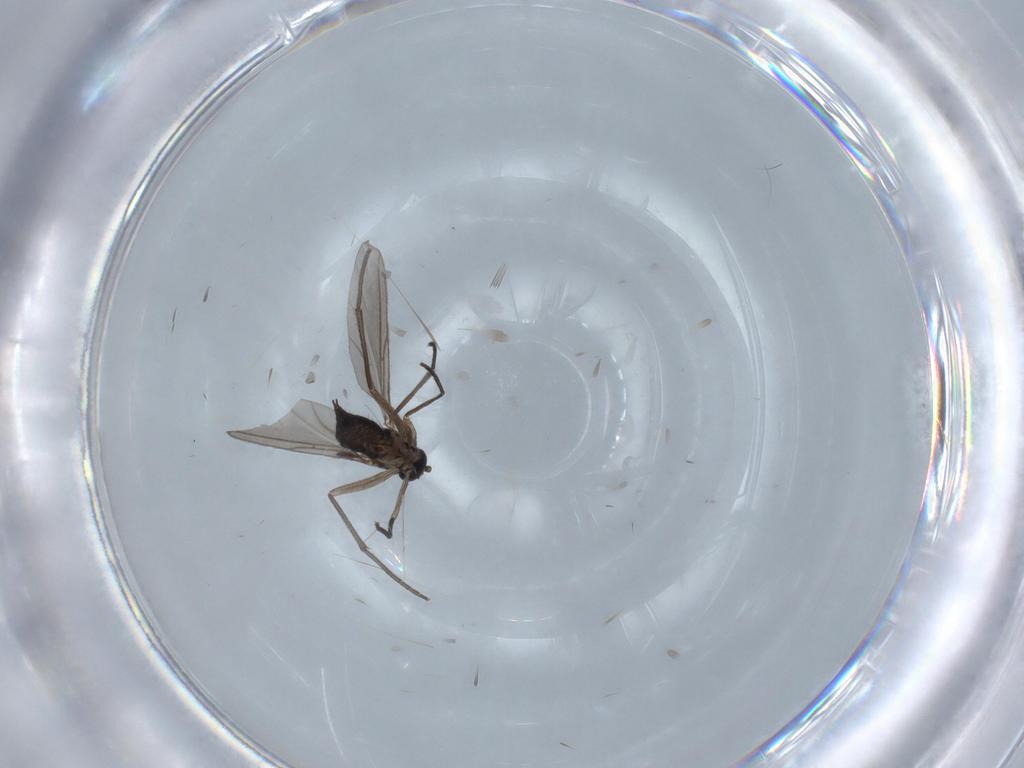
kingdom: Animalia
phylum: Arthropoda
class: Insecta
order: Diptera
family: Sciaridae
